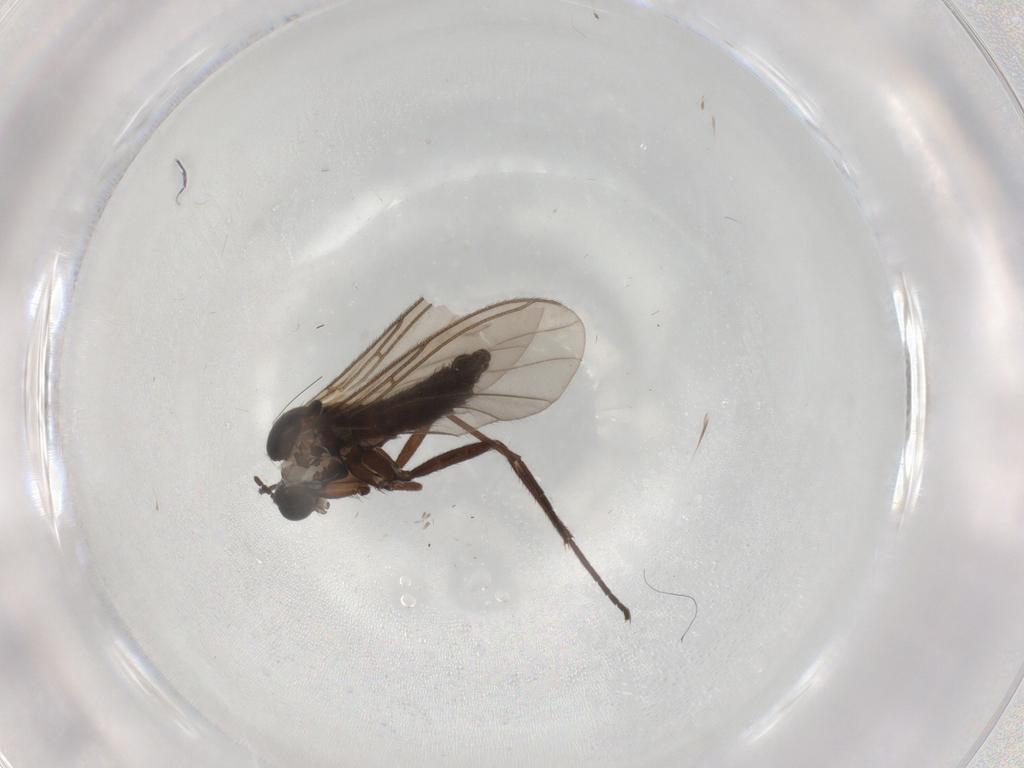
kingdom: Animalia
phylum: Arthropoda
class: Insecta
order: Diptera
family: Sciaridae
